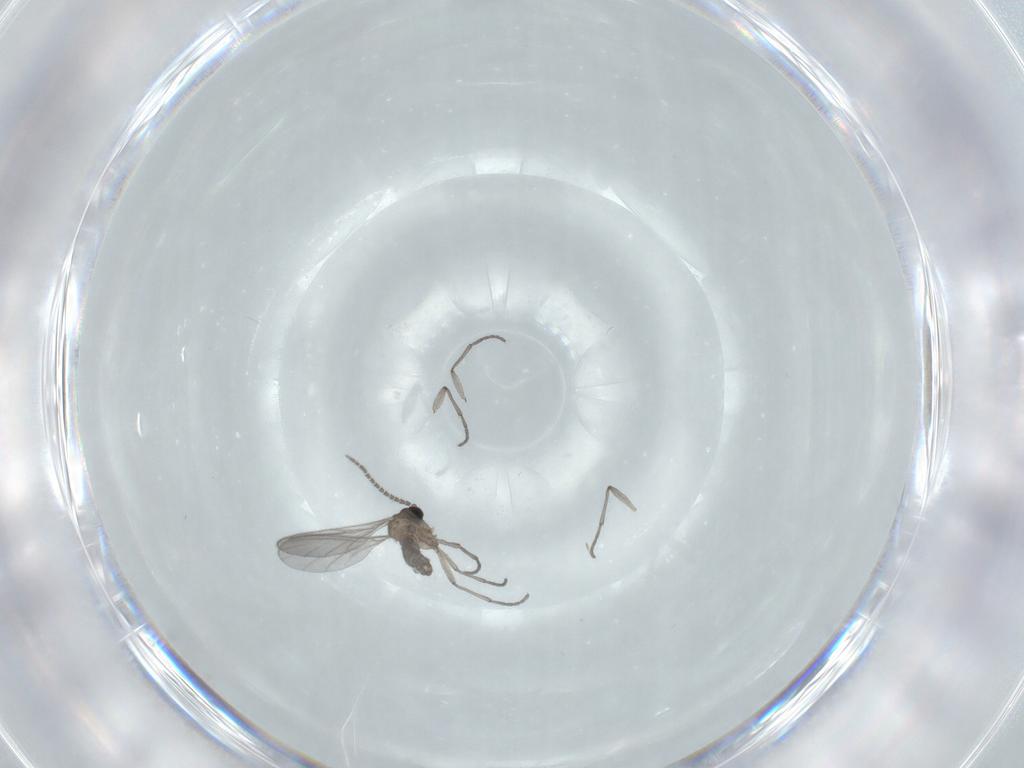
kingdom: Animalia
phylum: Arthropoda
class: Insecta
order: Diptera
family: Sciaridae
